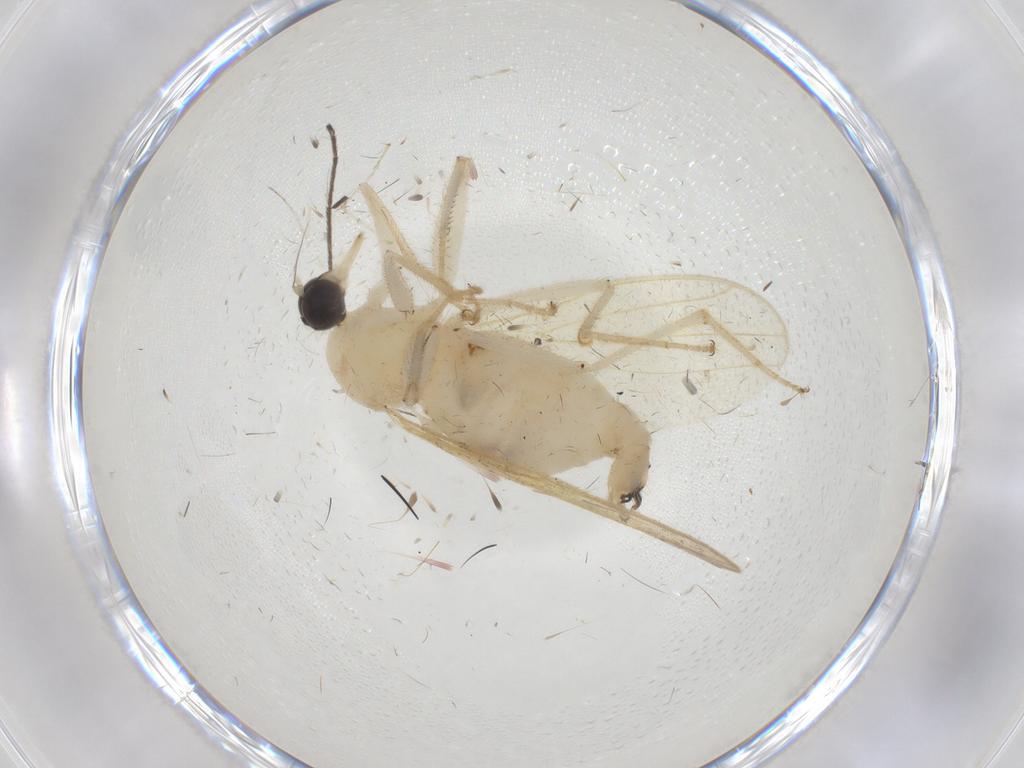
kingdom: Animalia
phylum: Arthropoda
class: Insecta
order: Diptera
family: Hybotidae
